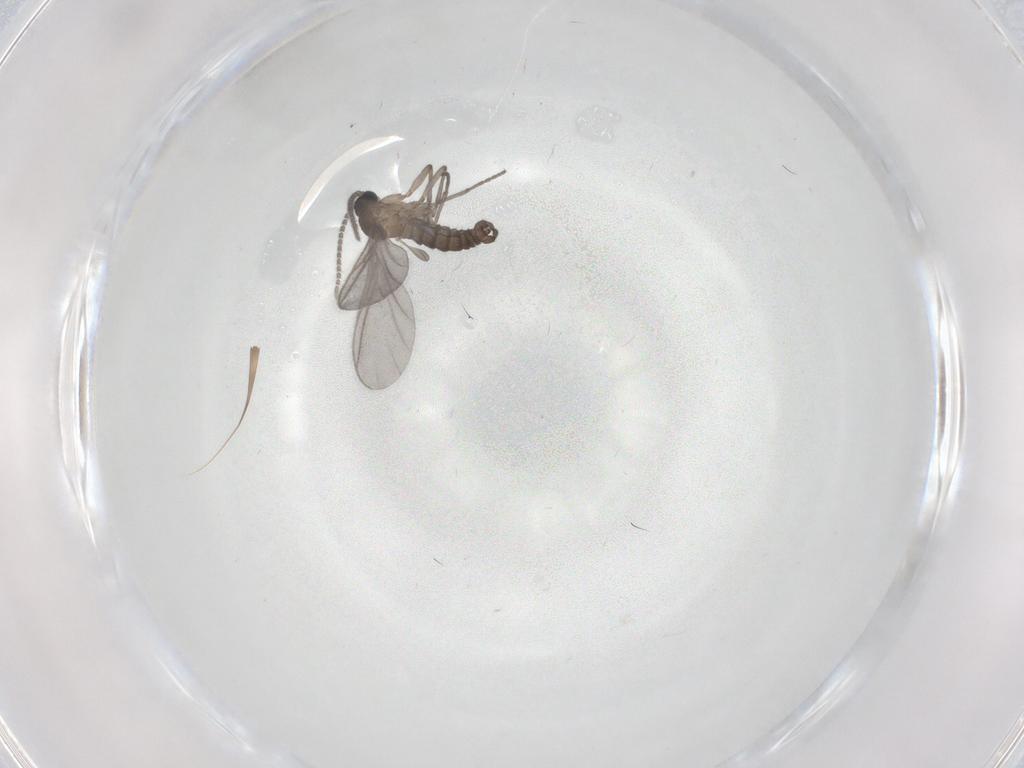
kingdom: Animalia
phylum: Arthropoda
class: Insecta
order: Diptera
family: Sciaridae
